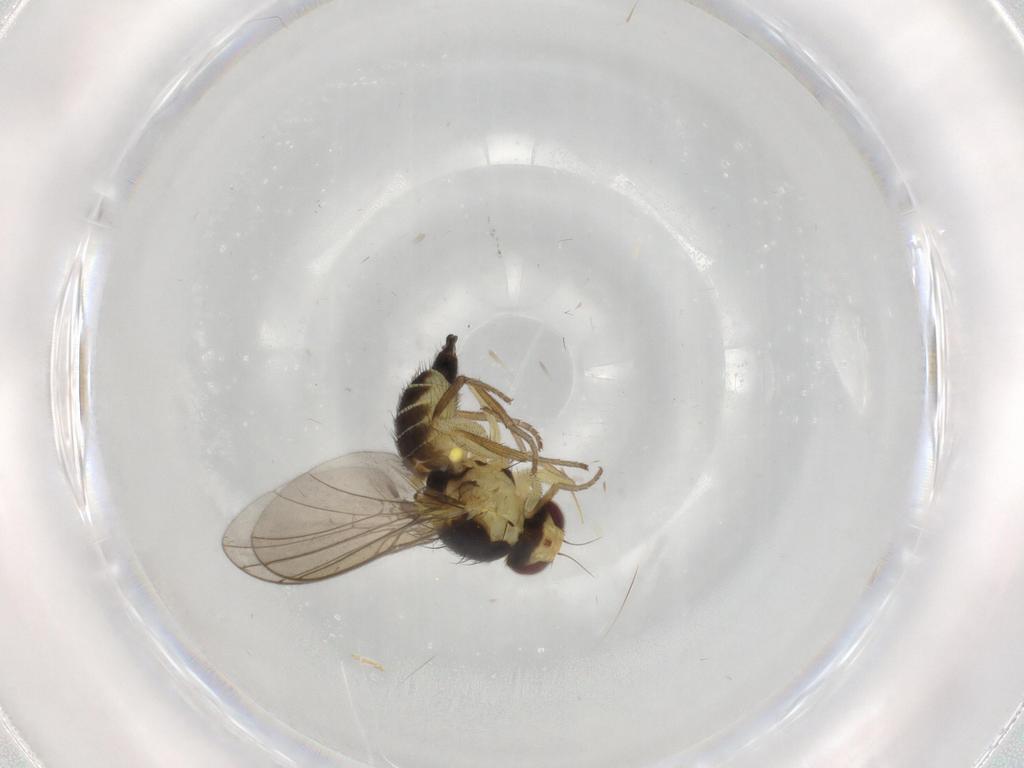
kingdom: Animalia
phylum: Arthropoda
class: Insecta
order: Diptera
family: Agromyzidae
